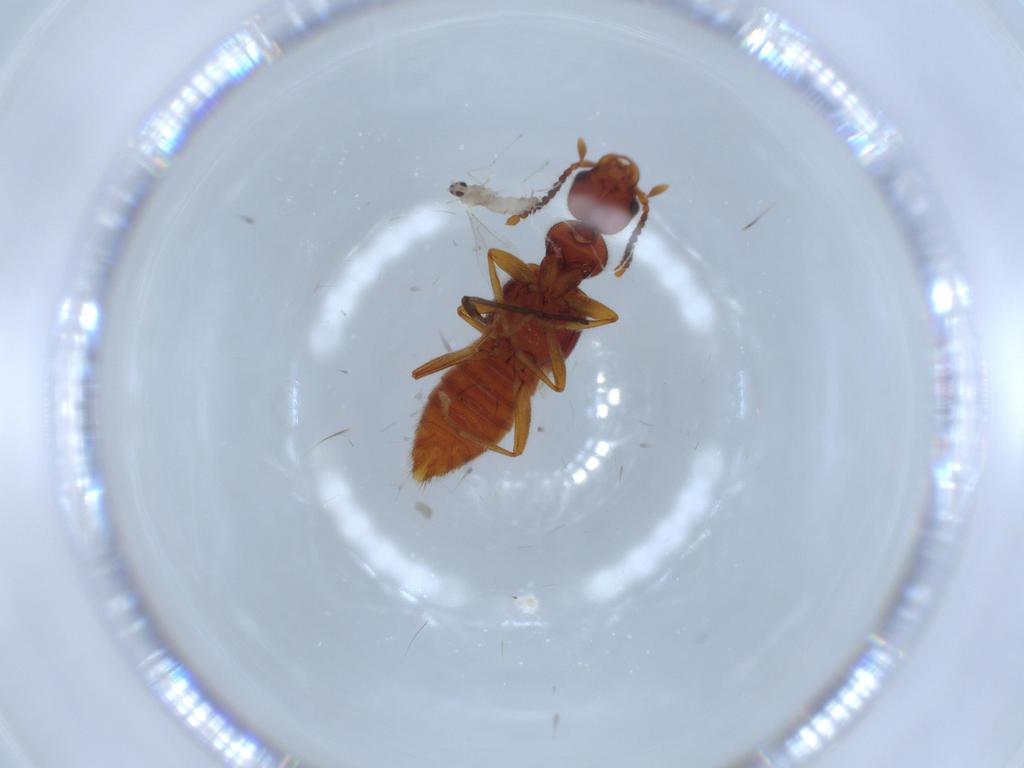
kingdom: Animalia
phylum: Arthropoda
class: Insecta
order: Diptera
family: Cecidomyiidae
